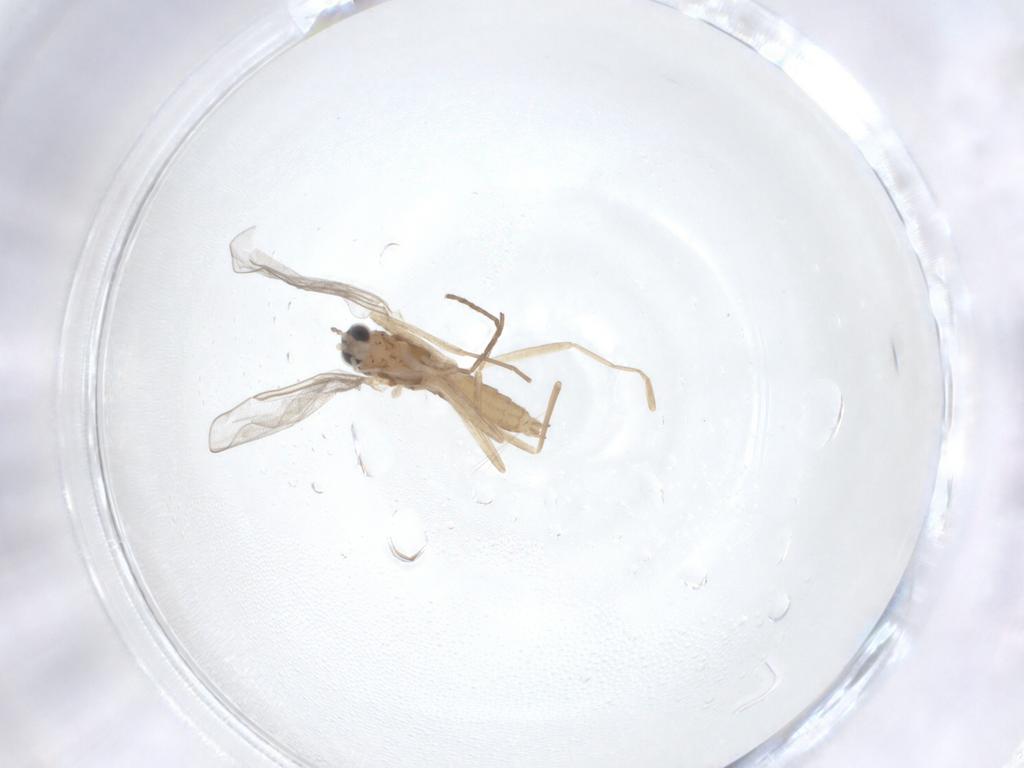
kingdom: Animalia
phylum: Arthropoda
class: Insecta
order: Diptera
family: Cecidomyiidae
